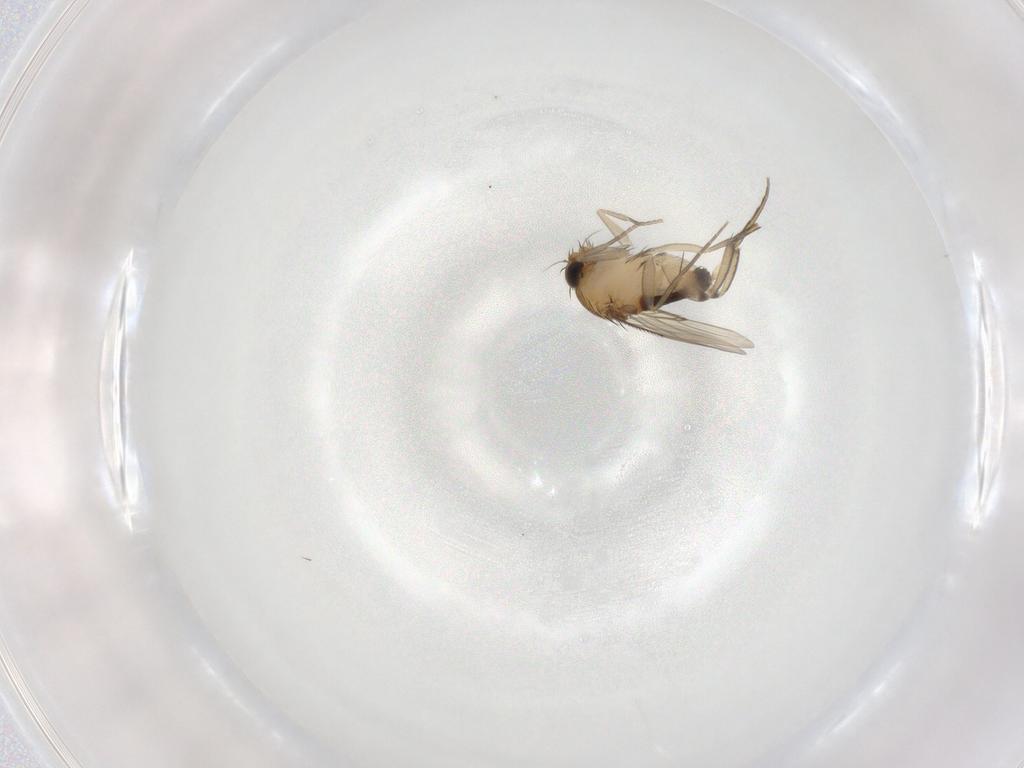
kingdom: Animalia
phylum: Arthropoda
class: Insecta
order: Diptera
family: Phoridae
